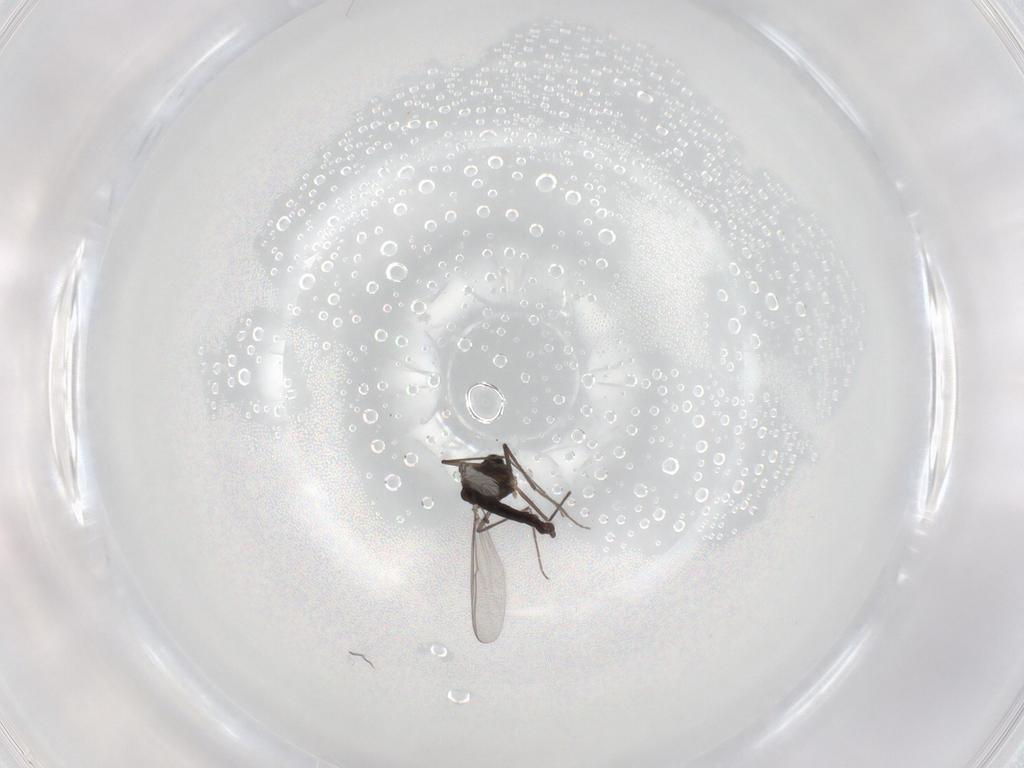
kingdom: Animalia
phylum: Arthropoda
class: Insecta
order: Diptera
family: Chironomidae
